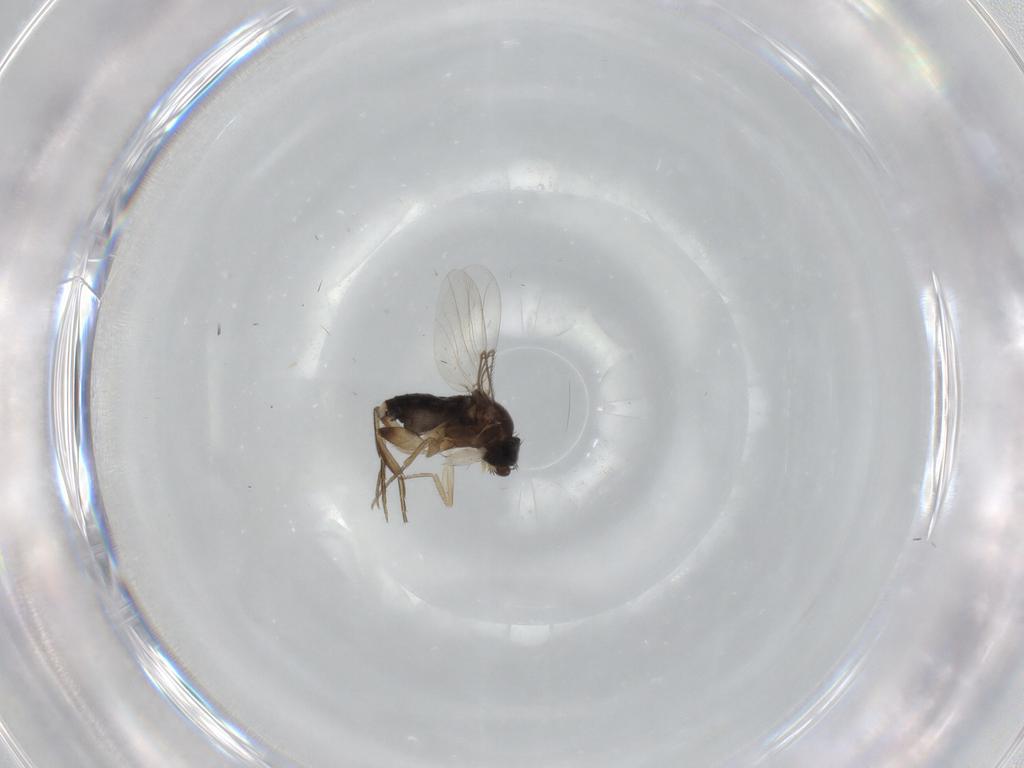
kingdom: Animalia
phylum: Arthropoda
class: Insecta
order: Diptera
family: Phoridae
